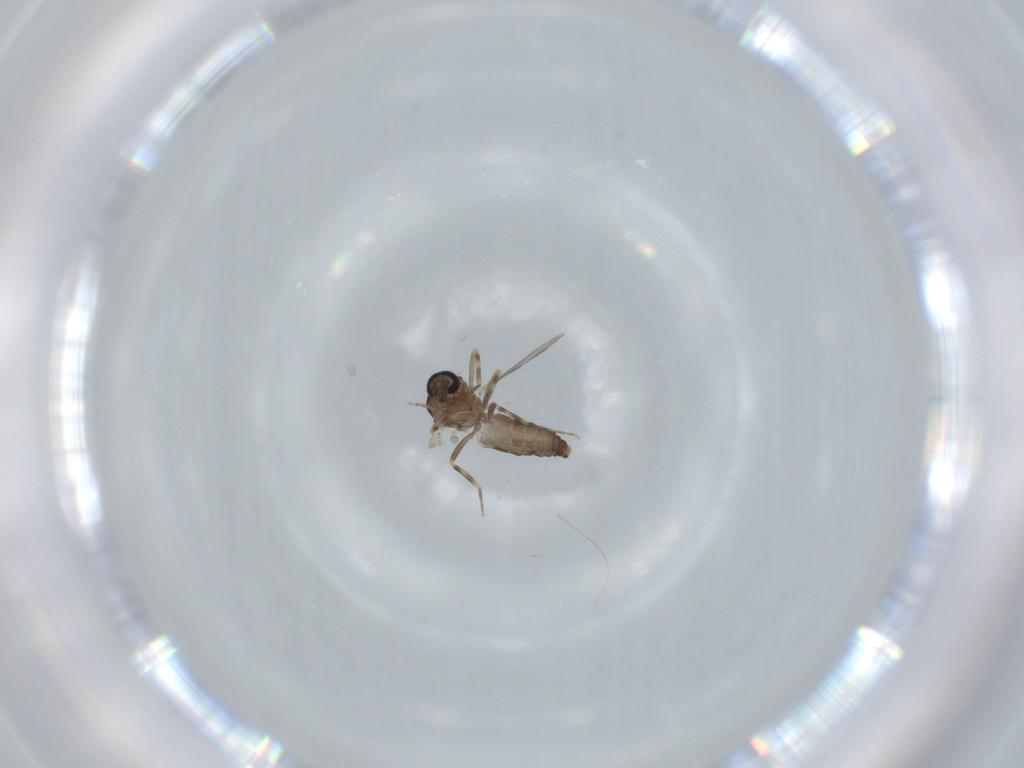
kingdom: Animalia
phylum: Arthropoda
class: Insecta
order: Diptera
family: Ceratopogonidae
